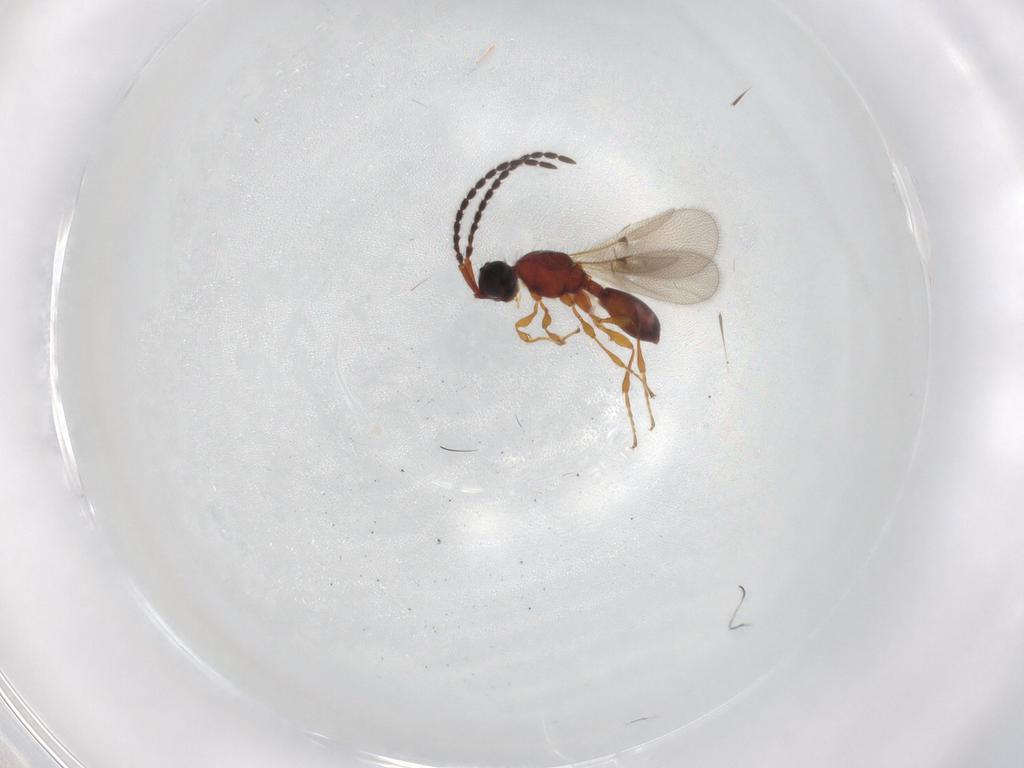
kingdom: Animalia
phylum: Arthropoda
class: Insecta
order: Hymenoptera
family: Diapriidae
